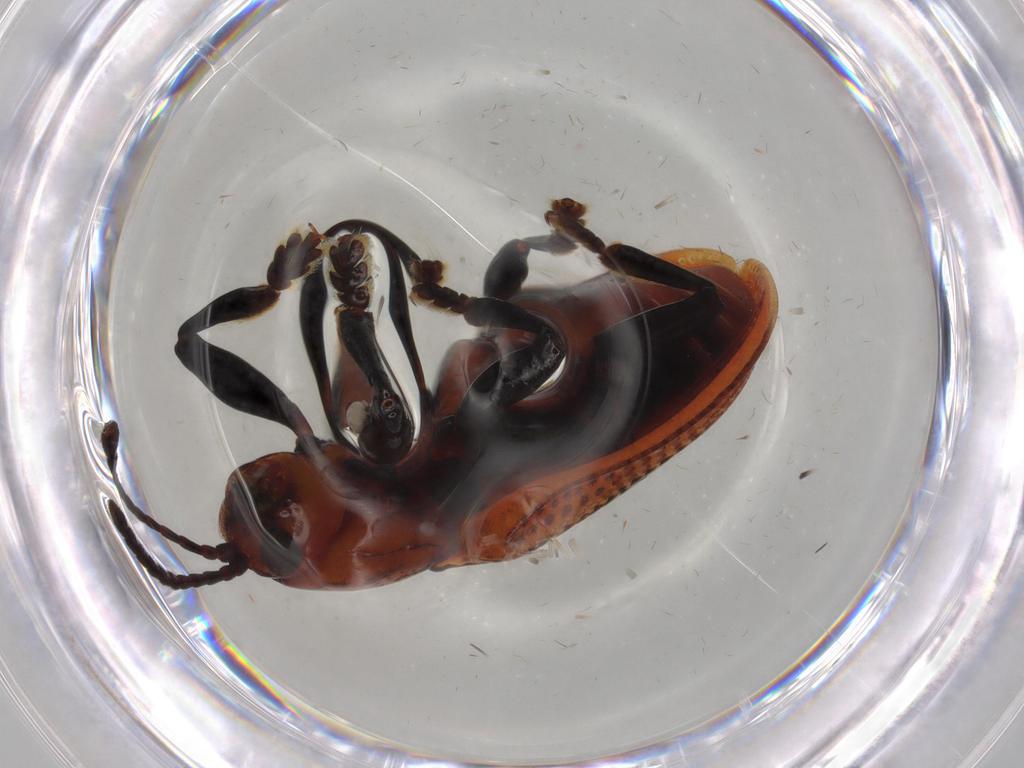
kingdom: Animalia
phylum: Arthropoda
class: Insecta
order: Coleoptera
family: Chrysomelidae
